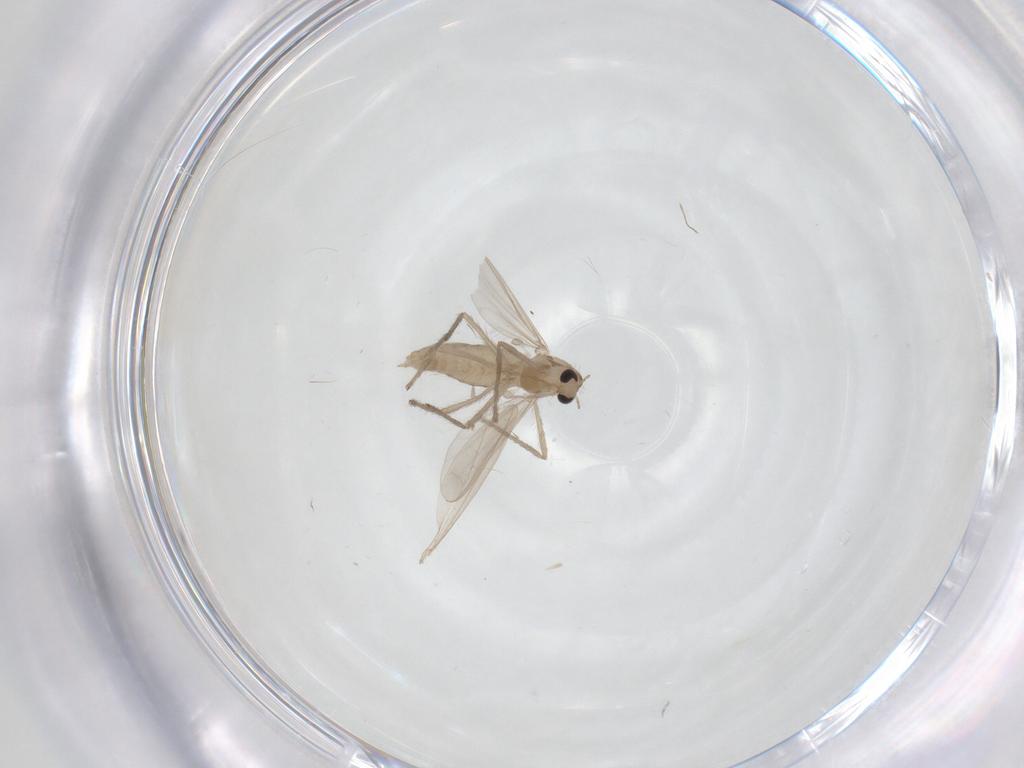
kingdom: Animalia
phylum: Arthropoda
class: Insecta
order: Diptera
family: Chironomidae
